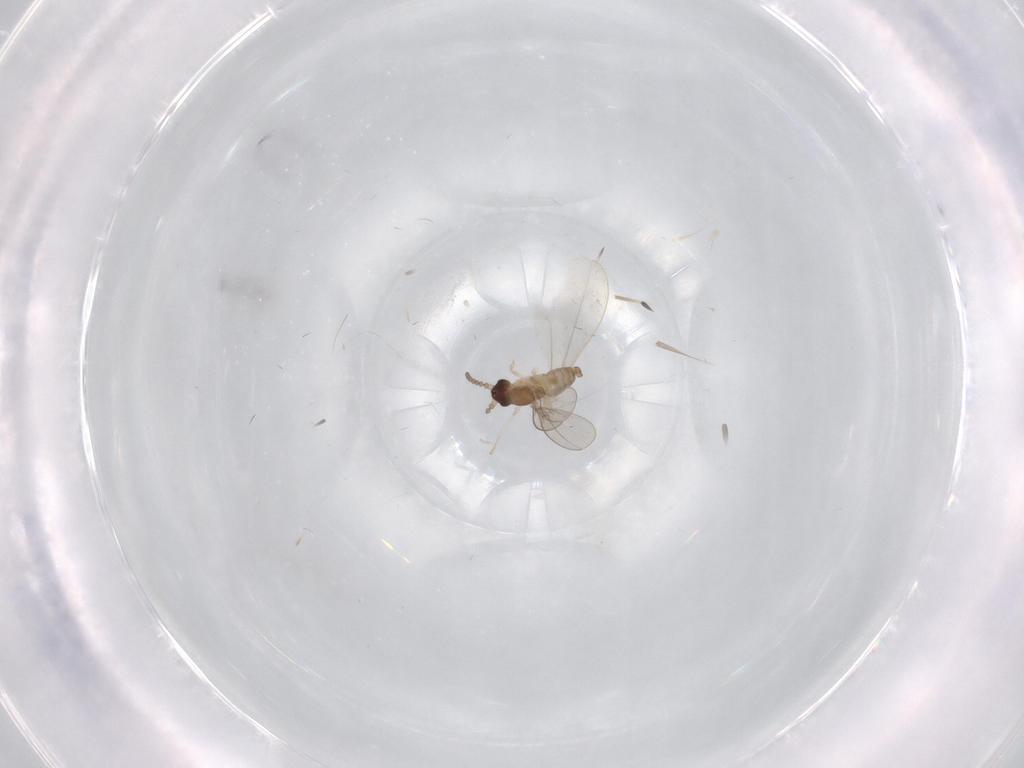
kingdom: Animalia
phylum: Arthropoda
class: Insecta
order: Diptera
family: Cecidomyiidae
